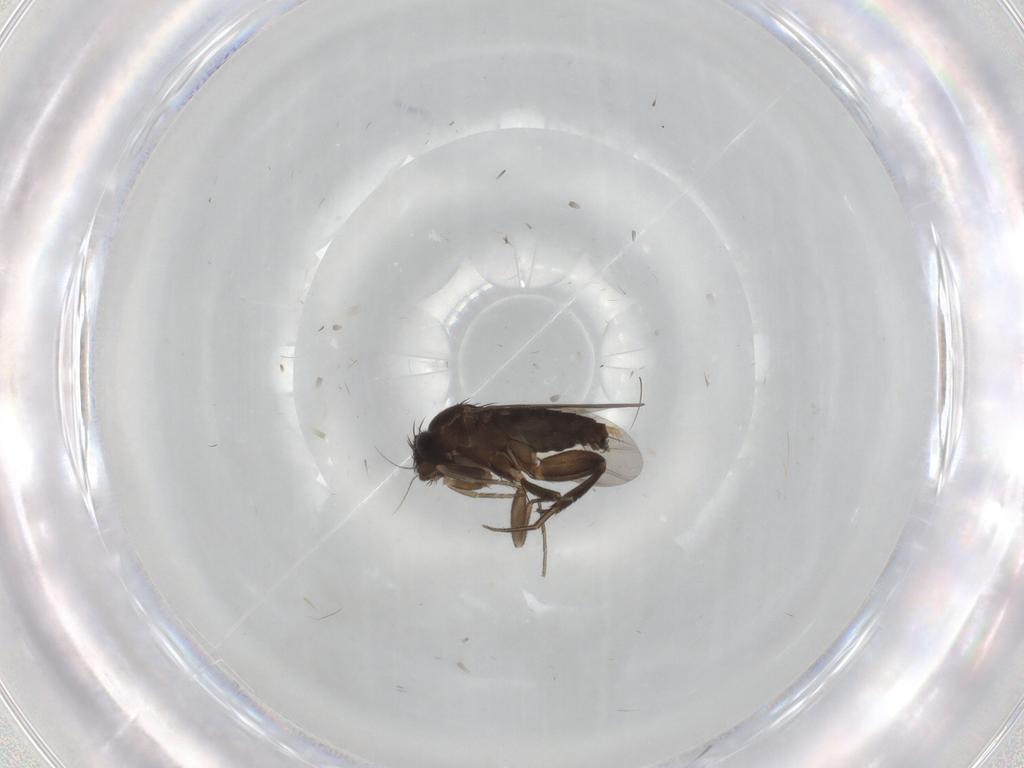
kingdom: Animalia
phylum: Arthropoda
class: Insecta
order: Diptera
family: Phoridae
